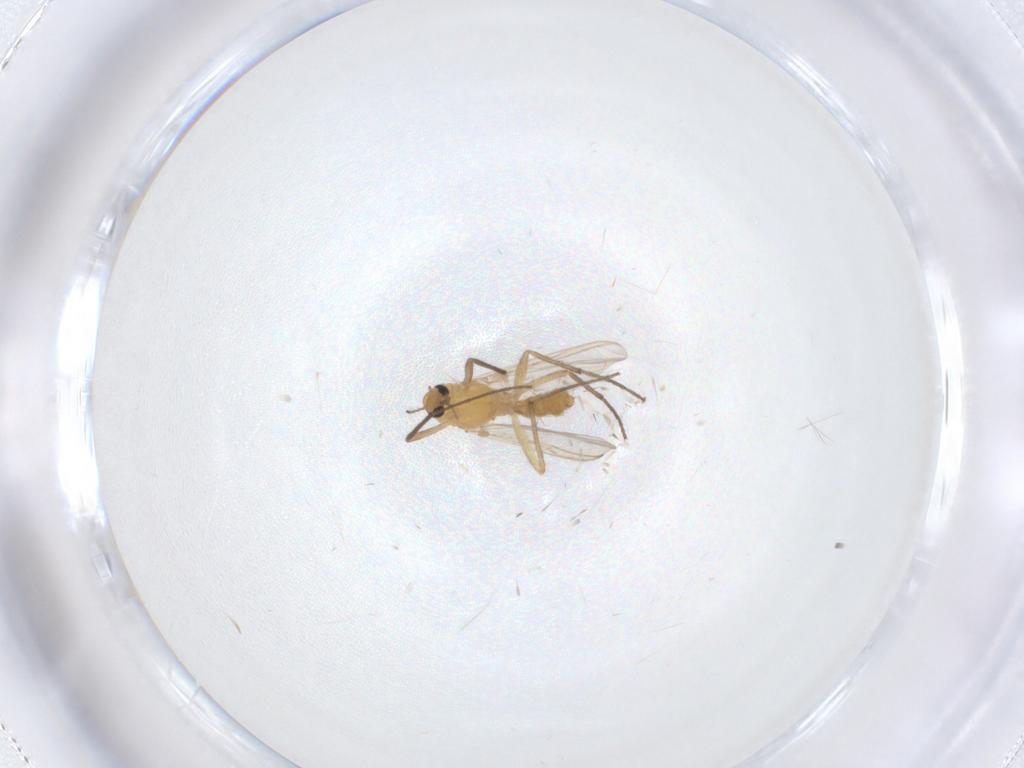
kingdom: Animalia
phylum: Arthropoda
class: Insecta
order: Diptera
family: Chironomidae
